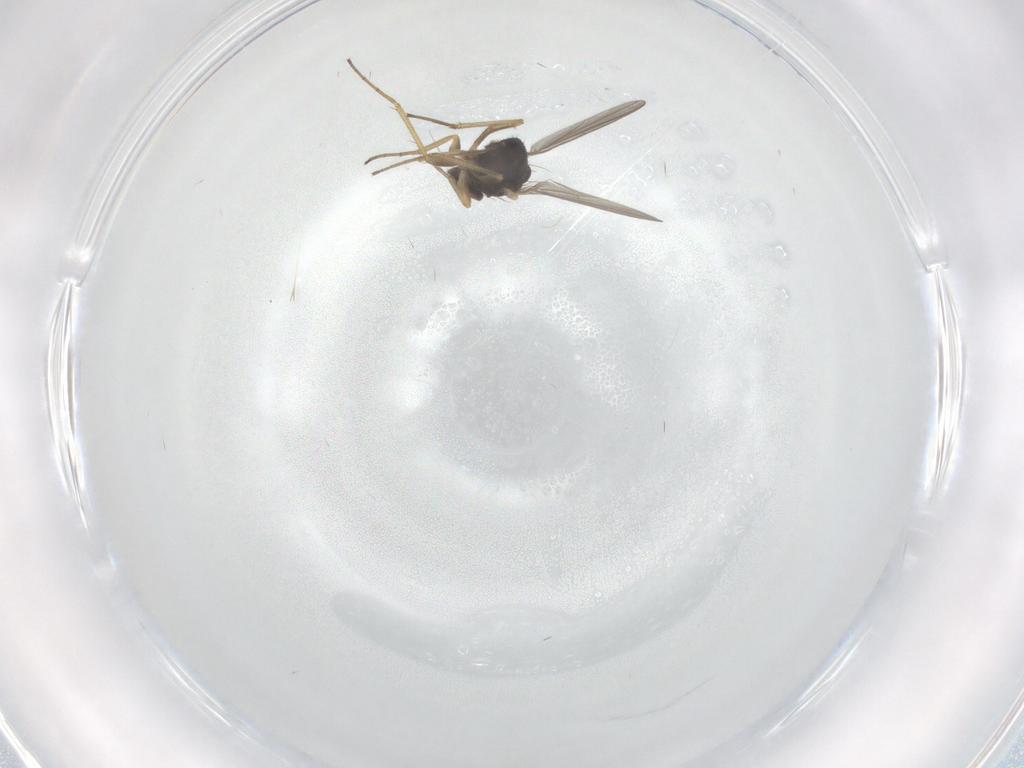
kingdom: Animalia
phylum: Arthropoda
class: Insecta
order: Diptera
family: Dolichopodidae
